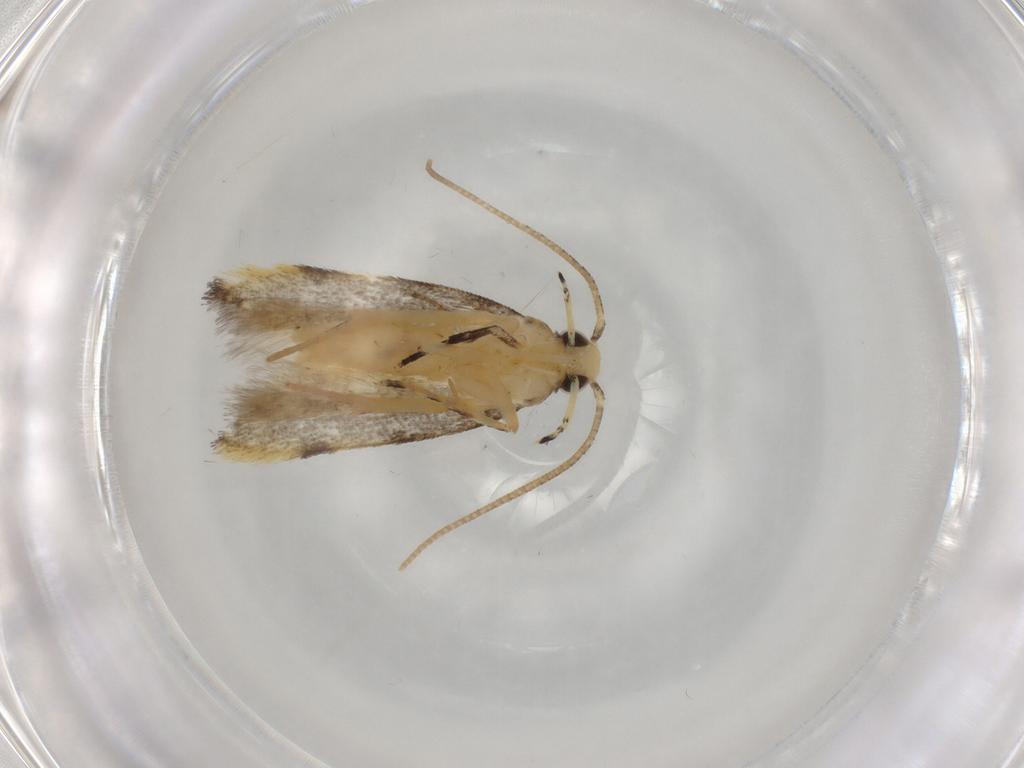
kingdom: Animalia
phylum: Arthropoda
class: Insecta
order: Lepidoptera
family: Autostichidae
